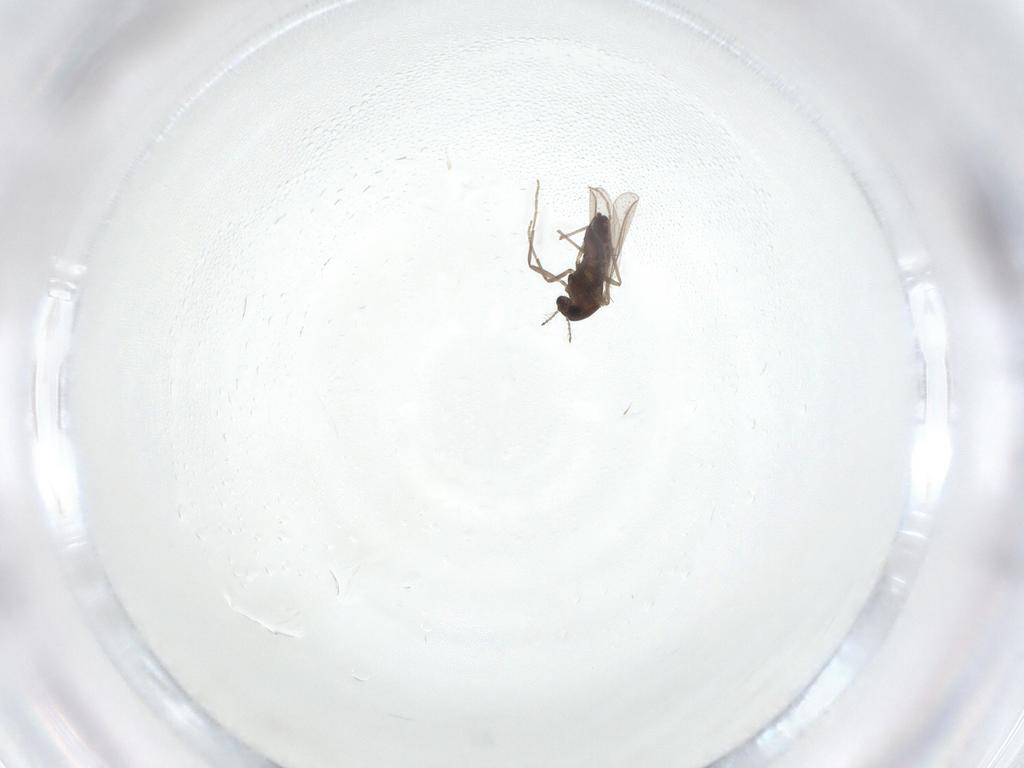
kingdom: Animalia
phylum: Arthropoda
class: Insecta
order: Diptera
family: Chironomidae
